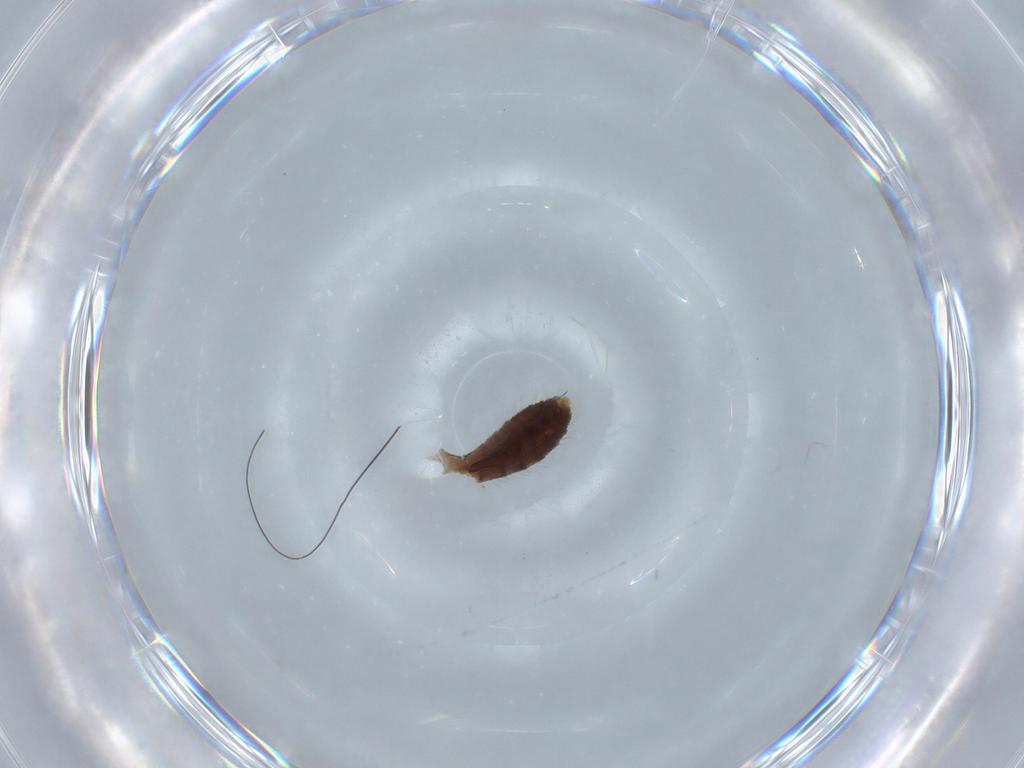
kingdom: Animalia
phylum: Arthropoda
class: Insecta
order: Diptera
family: Chironomidae
